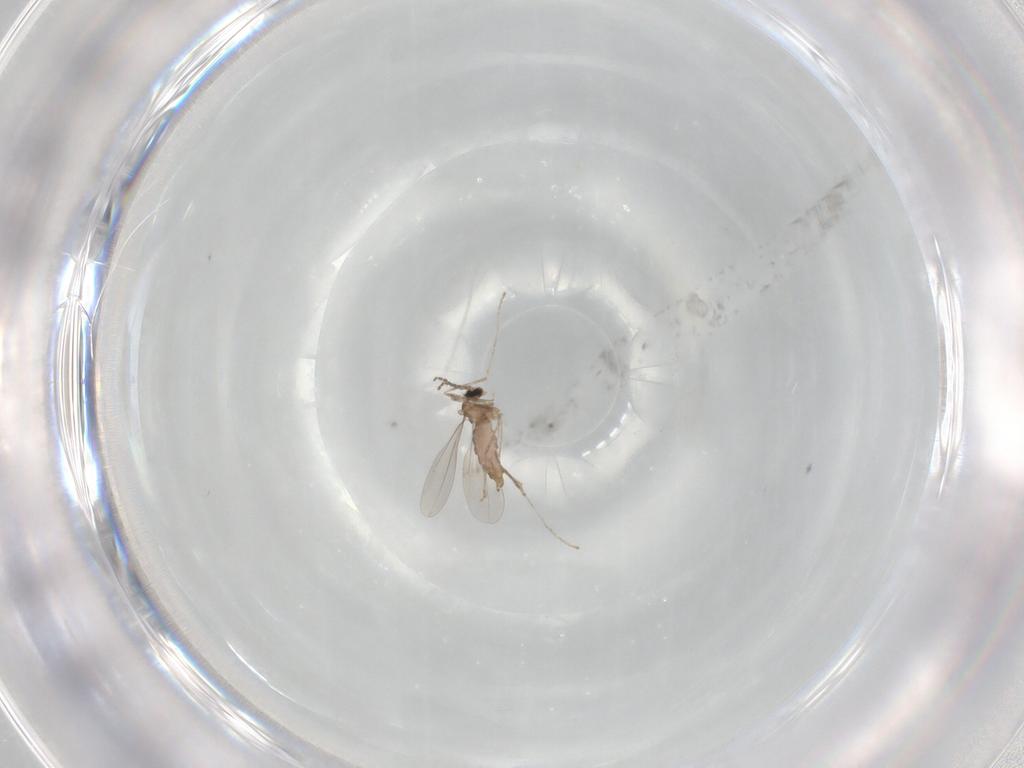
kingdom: Animalia
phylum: Arthropoda
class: Insecta
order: Diptera
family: Cecidomyiidae
